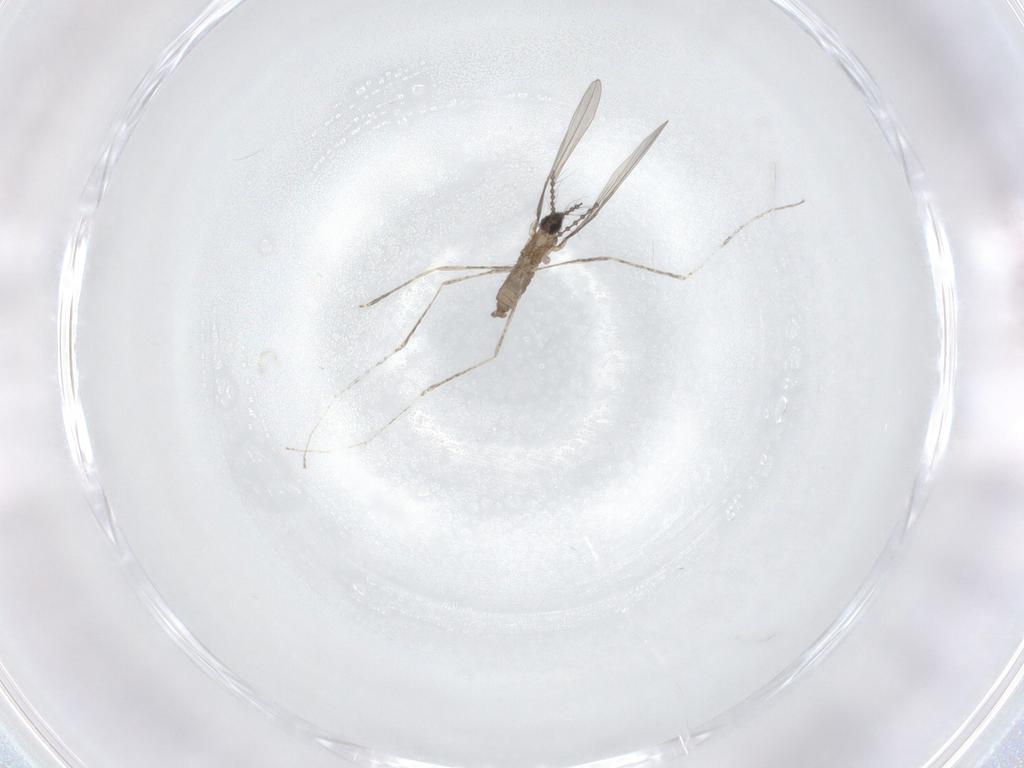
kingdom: Animalia
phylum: Arthropoda
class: Insecta
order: Diptera
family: Cecidomyiidae
